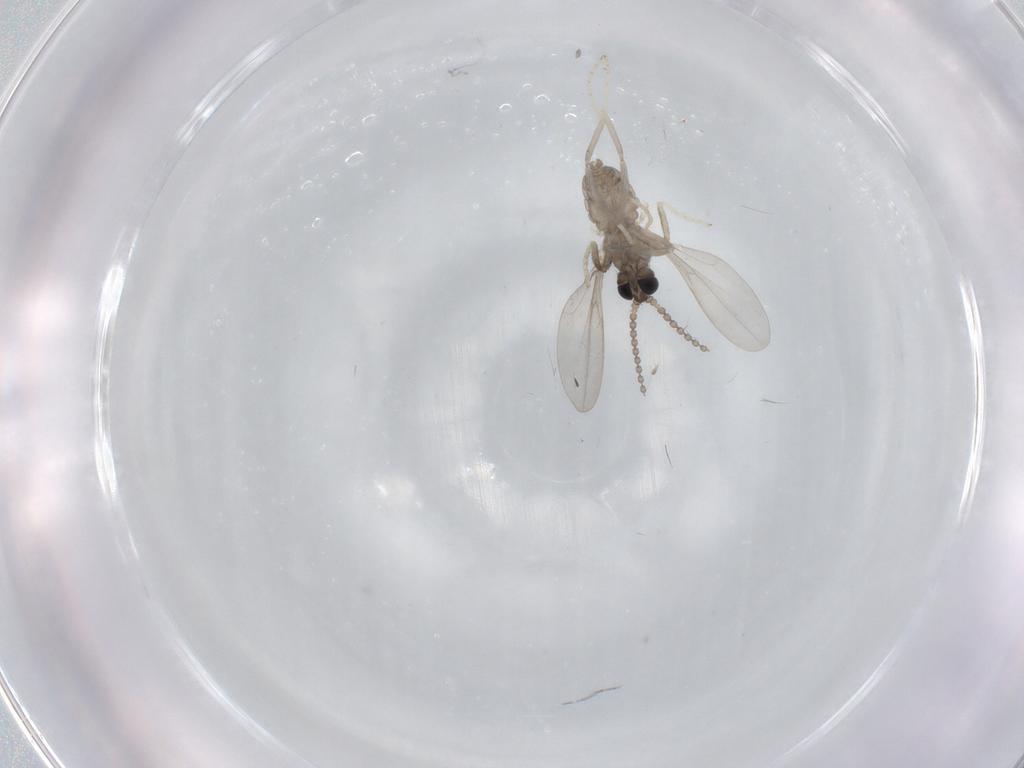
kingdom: Animalia
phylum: Arthropoda
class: Insecta
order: Diptera
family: Cecidomyiidae
